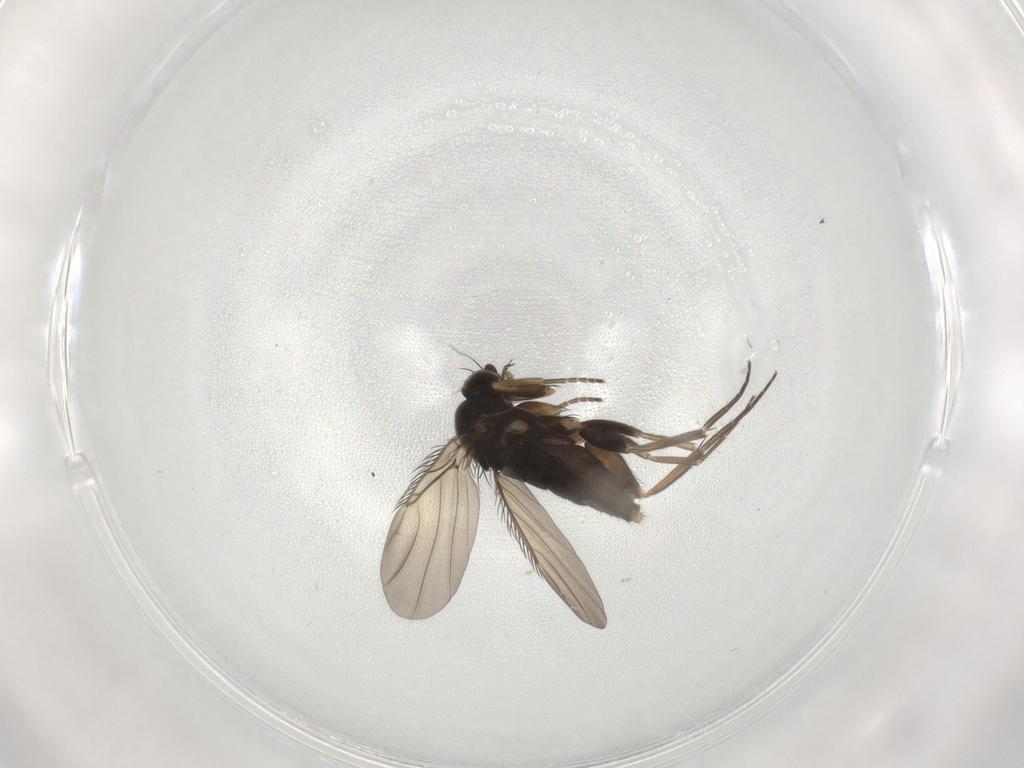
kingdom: Animalia
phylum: Arthropoda
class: Insecta
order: Diptera
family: Phoridae
